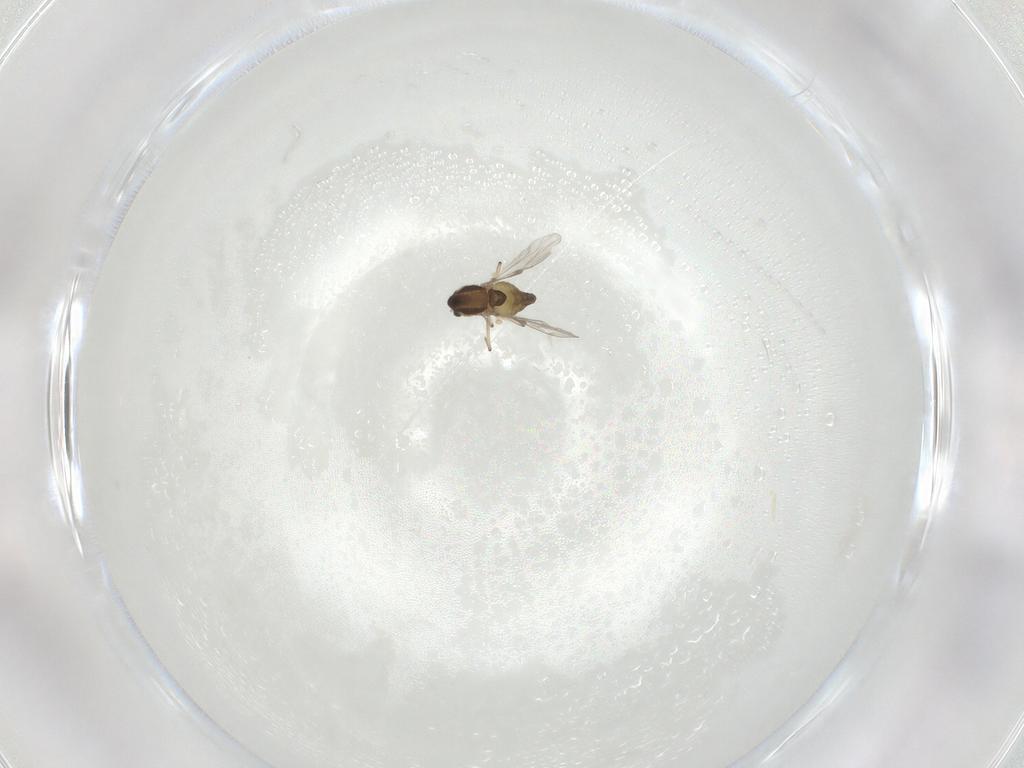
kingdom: Animalia
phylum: Arthropoda
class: Insecta
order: Diptera
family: Chironomidae
